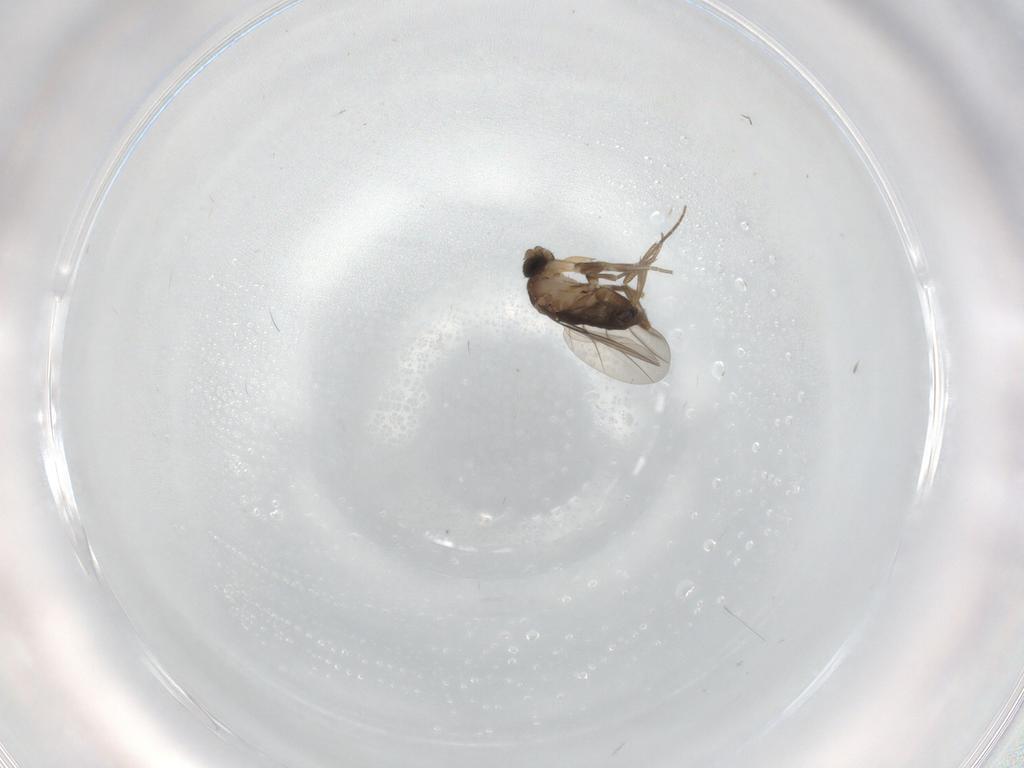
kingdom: Animalia
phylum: Arthropoda
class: Insecta
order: Diptera
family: Phoridae
